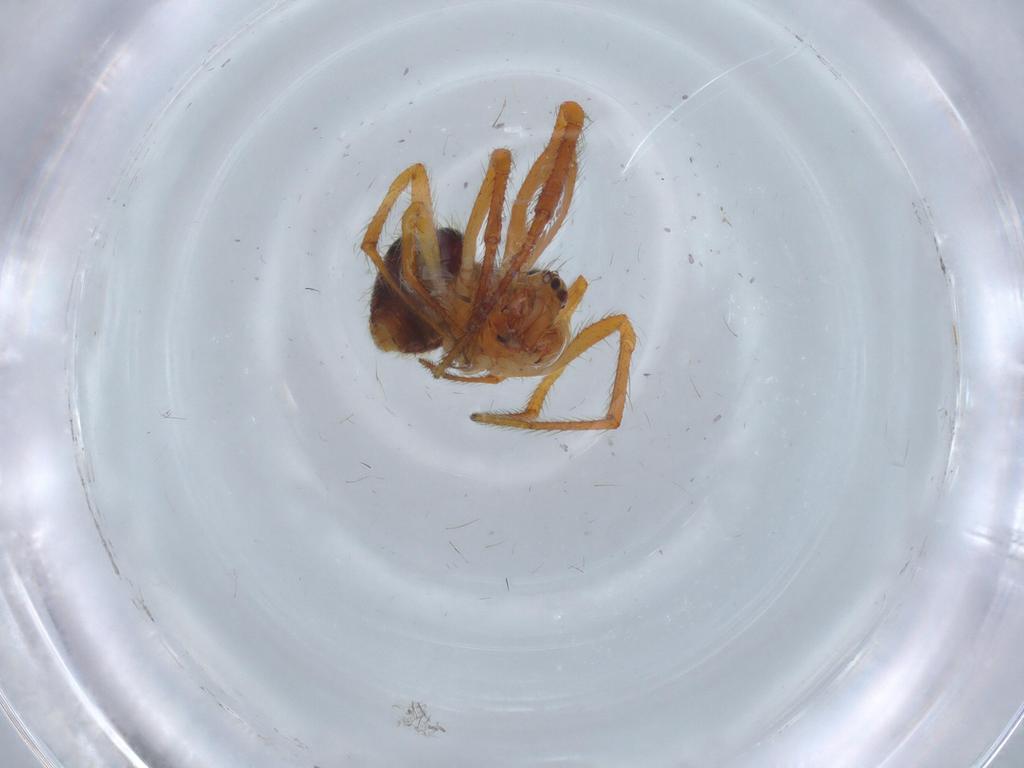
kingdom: Animalia
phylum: Arthropoda
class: Arachnida
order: Araneae
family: Theridiidae
